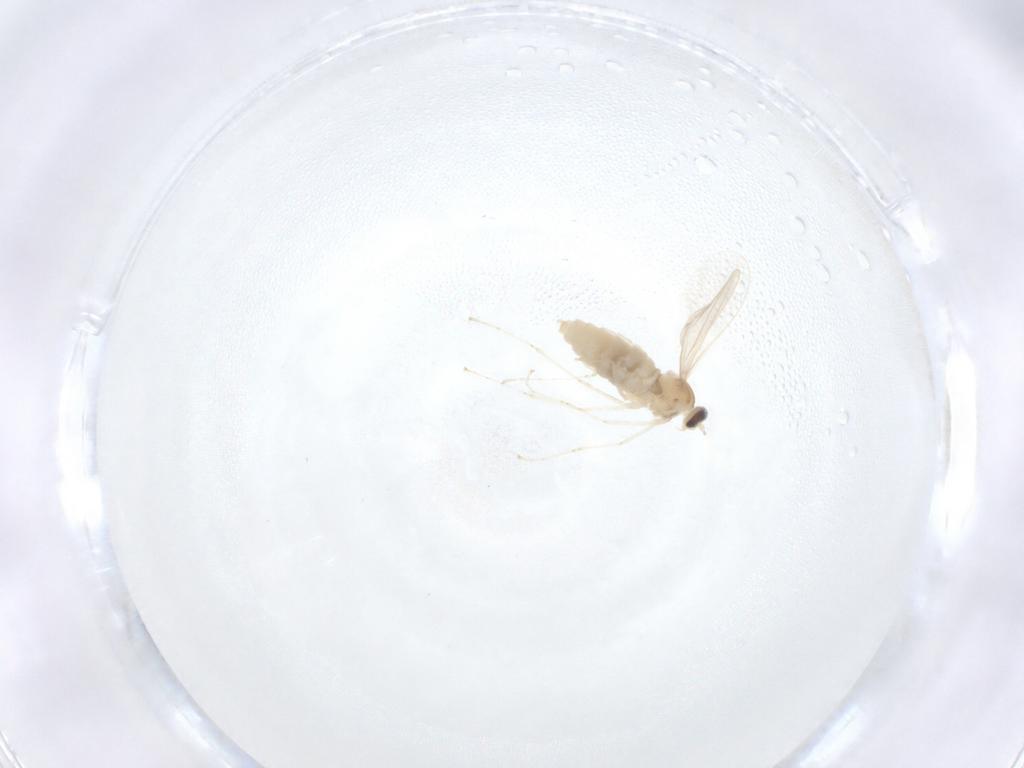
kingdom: Animalia
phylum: Arthropoda
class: Insecta
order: Diptera
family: Cecidomyiidae
